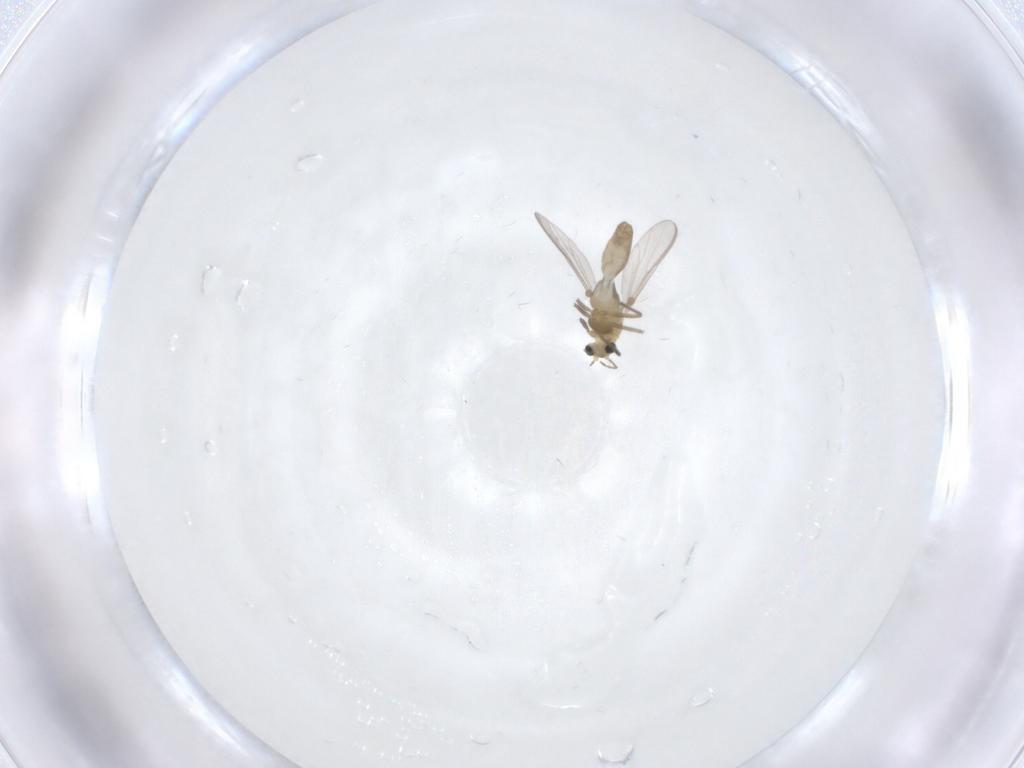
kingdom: Animalia
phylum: Arthropoda
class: Insecta
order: Diptera
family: Chironomidae
